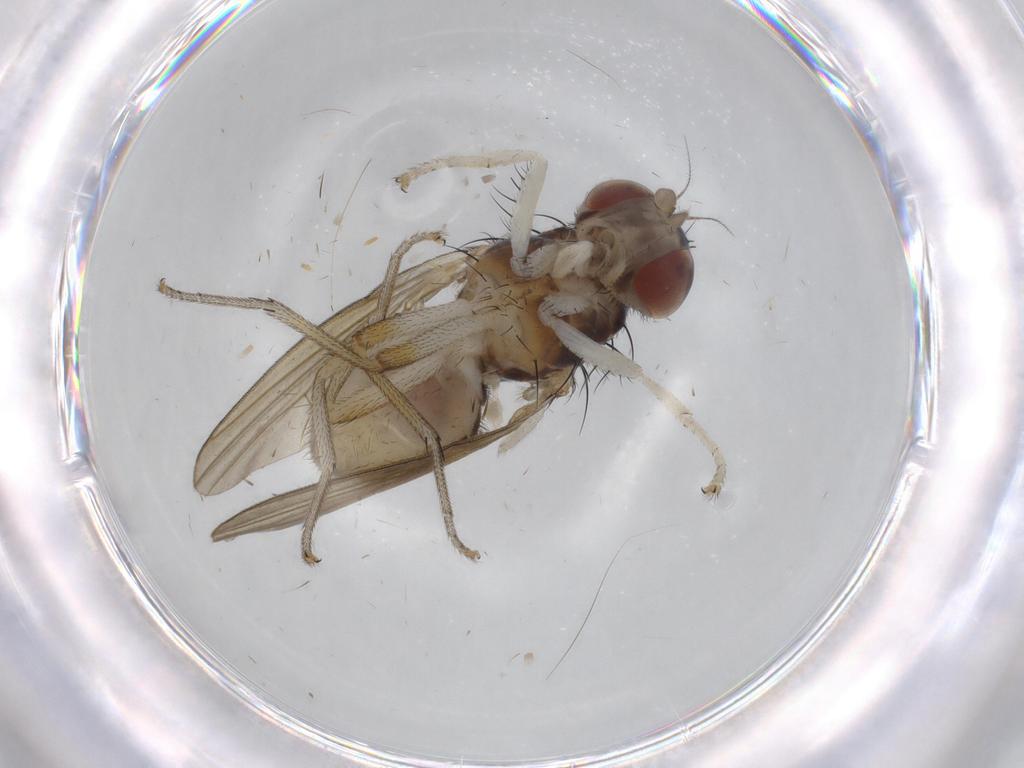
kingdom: Animalia
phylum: Arthropoda
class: Insecta
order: Diptera
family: Lauxaniidae
